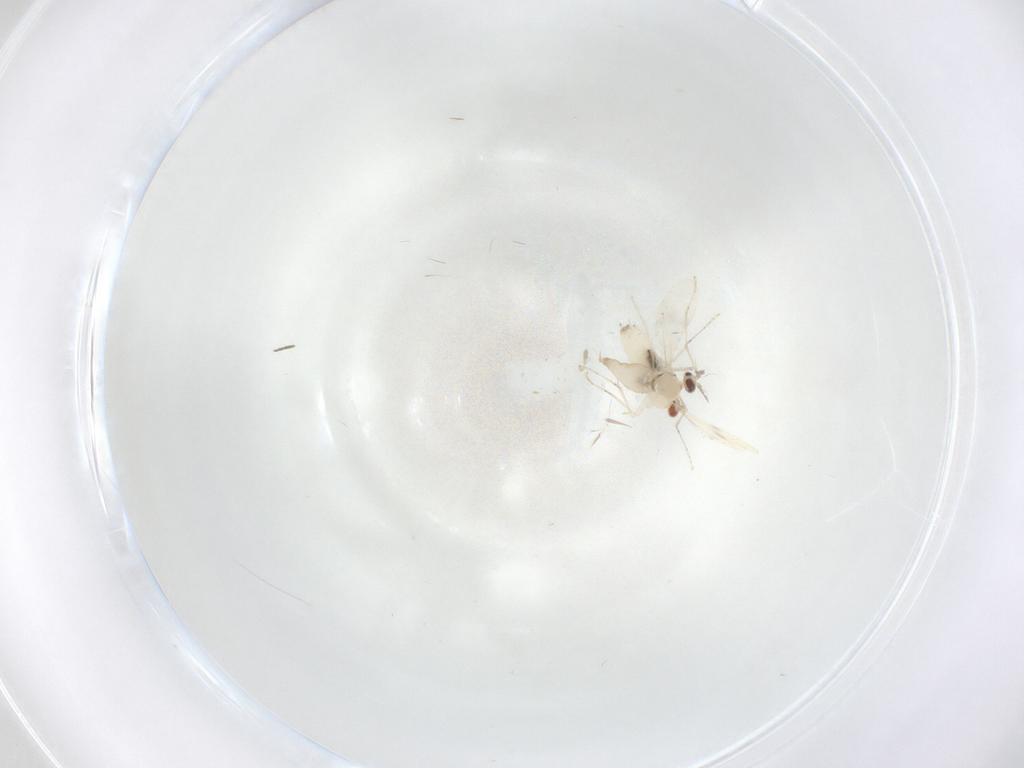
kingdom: Animalia
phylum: Arthropoda
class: Insecta
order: Diptera
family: Cecidomyiidae
